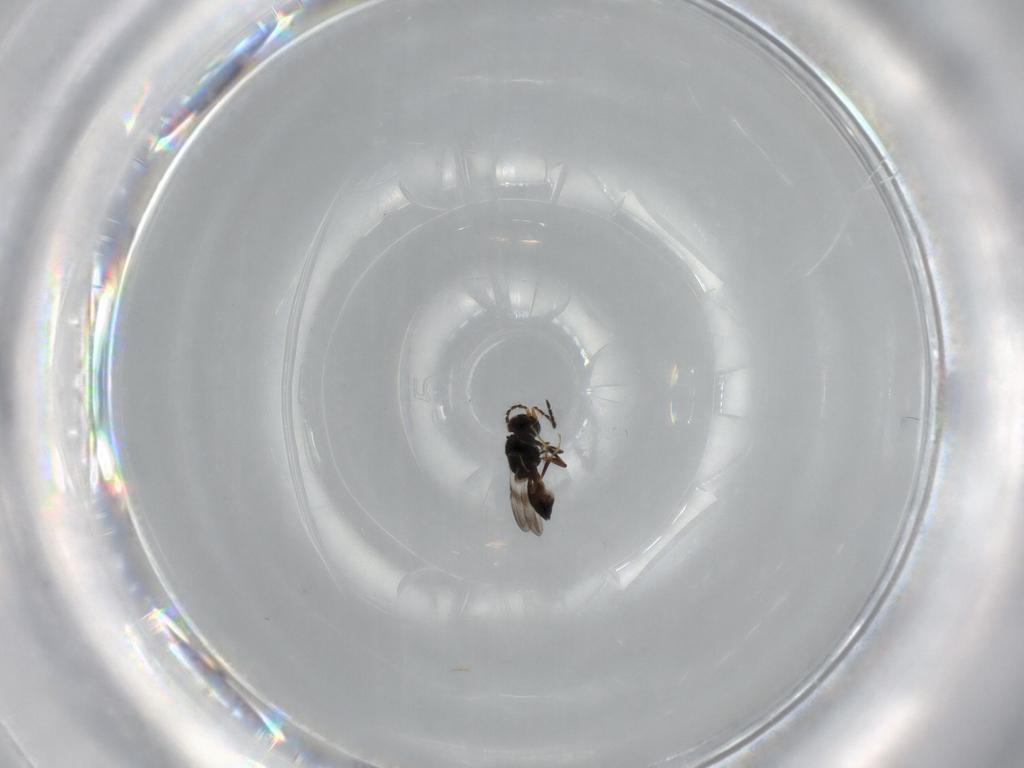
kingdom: Animalia
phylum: Arthropoda
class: Insecta
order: Hymenoptera
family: Ceraphronidae
